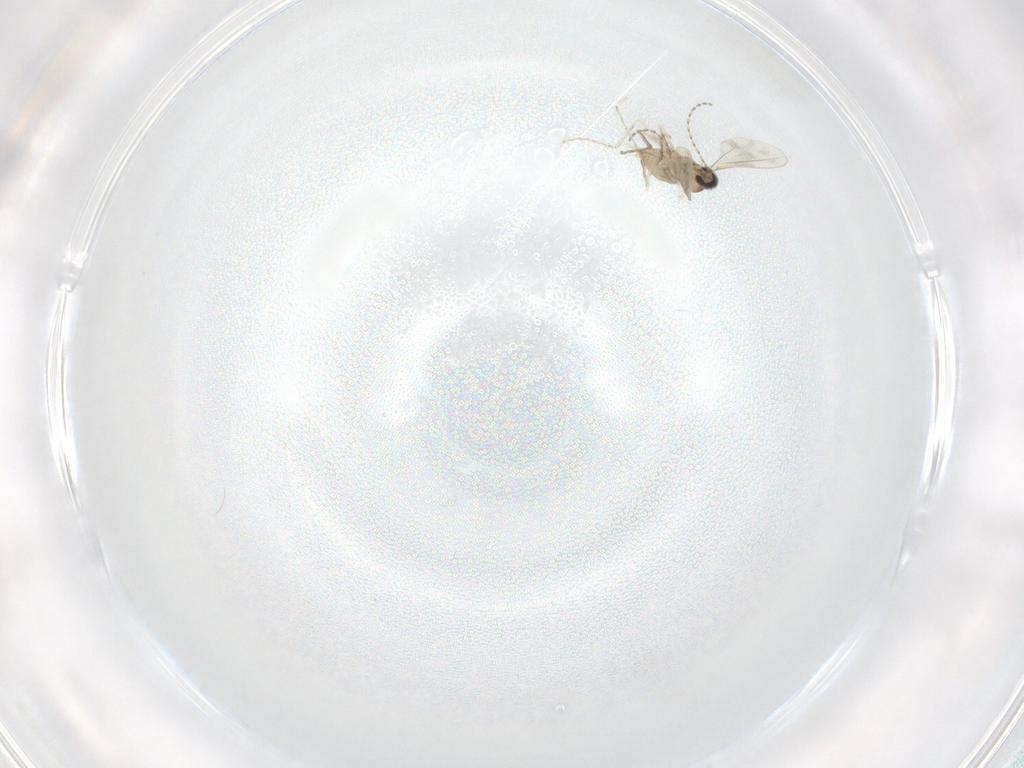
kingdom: Animalia
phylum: Arthropoda
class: Insecta
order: Diptera
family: Cecidomyiidae
